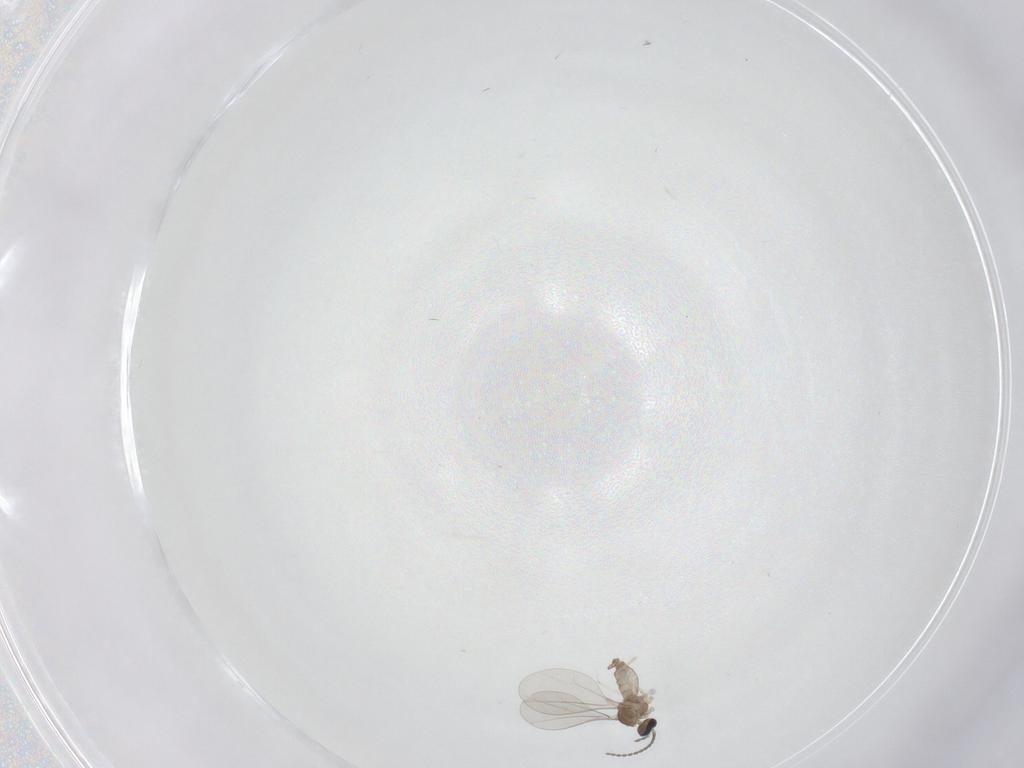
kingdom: Animalia
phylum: Arthropoda
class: Insecta
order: Diptera
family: Cecidomyiidae
